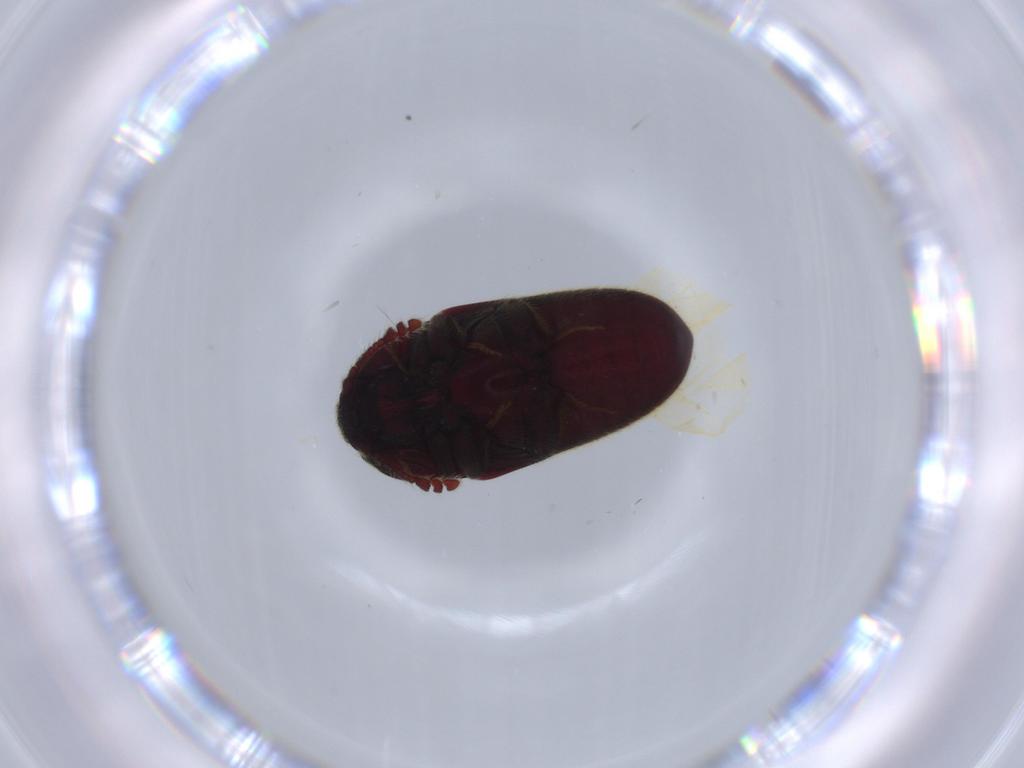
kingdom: Animalia
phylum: Arthropoda
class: Insecta
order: Coleoptera
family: Throscidae
